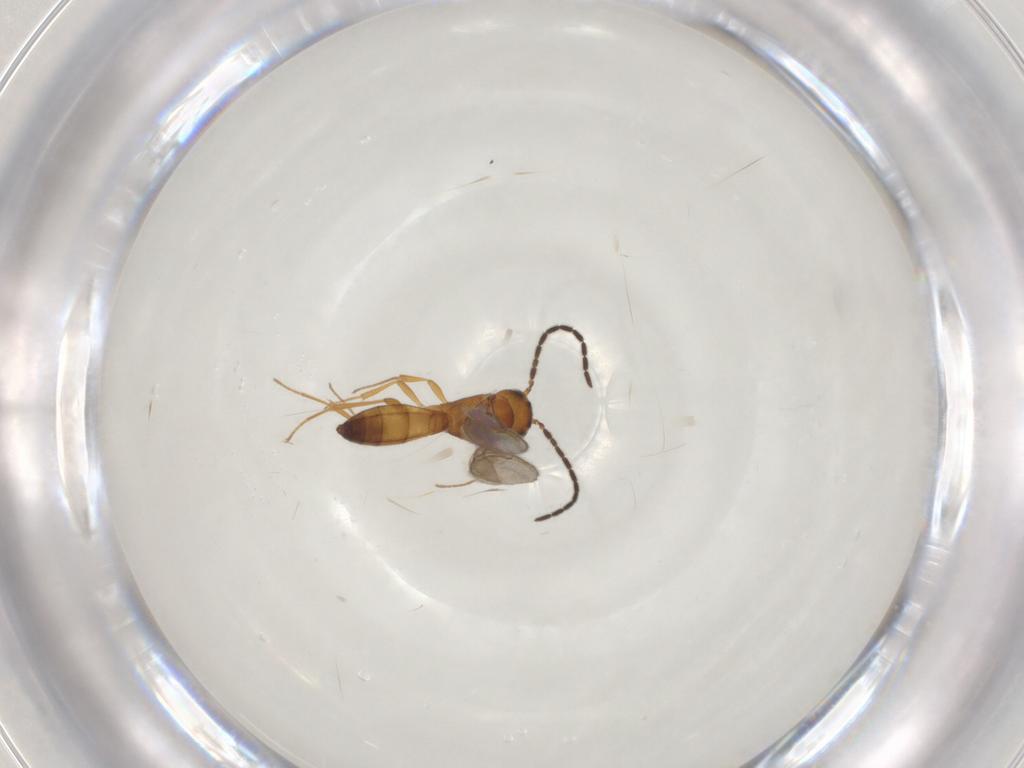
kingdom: Animalia
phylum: Arthropoda
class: Insecta
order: Hymenoptera
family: Scelionidae
